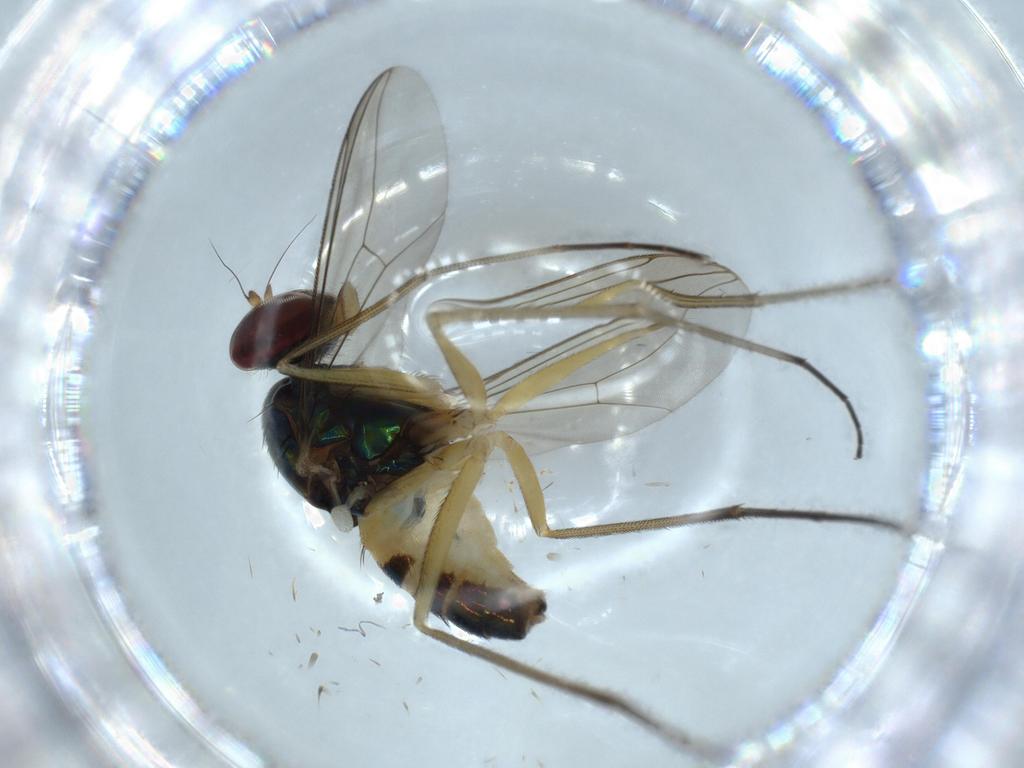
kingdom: Animalia
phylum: Arthropoda
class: Insecta
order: Diptera
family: Dolichopodidae
